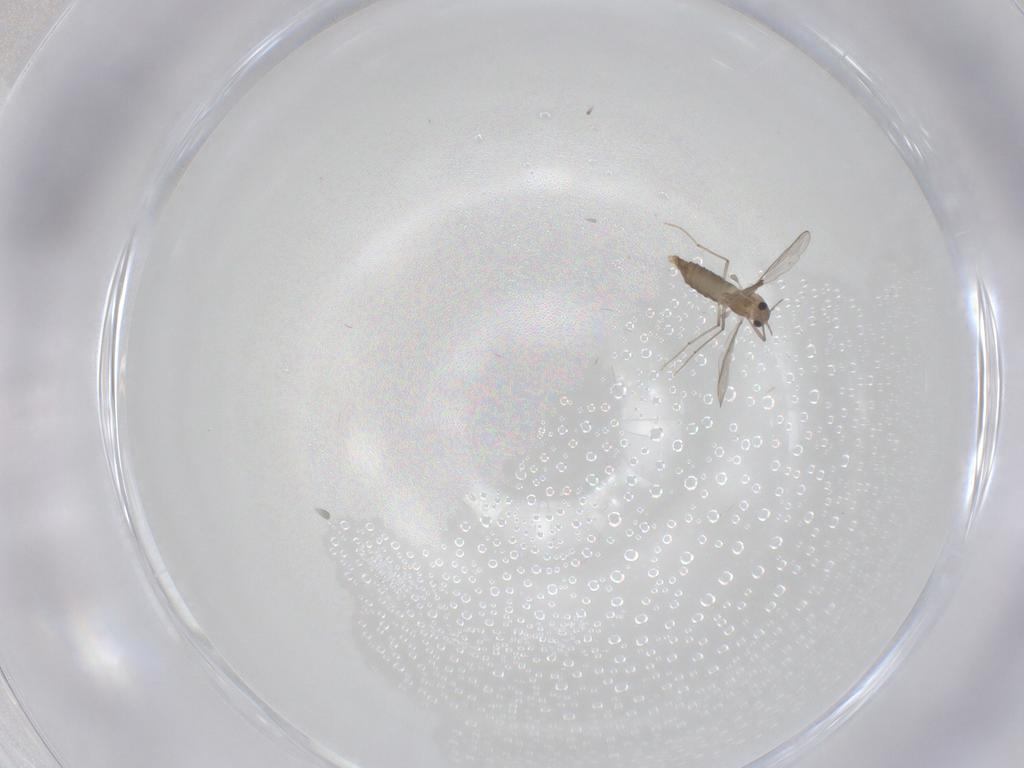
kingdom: Animalia
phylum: Arthropoda
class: Insecta
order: Diptera
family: Chironomidae
